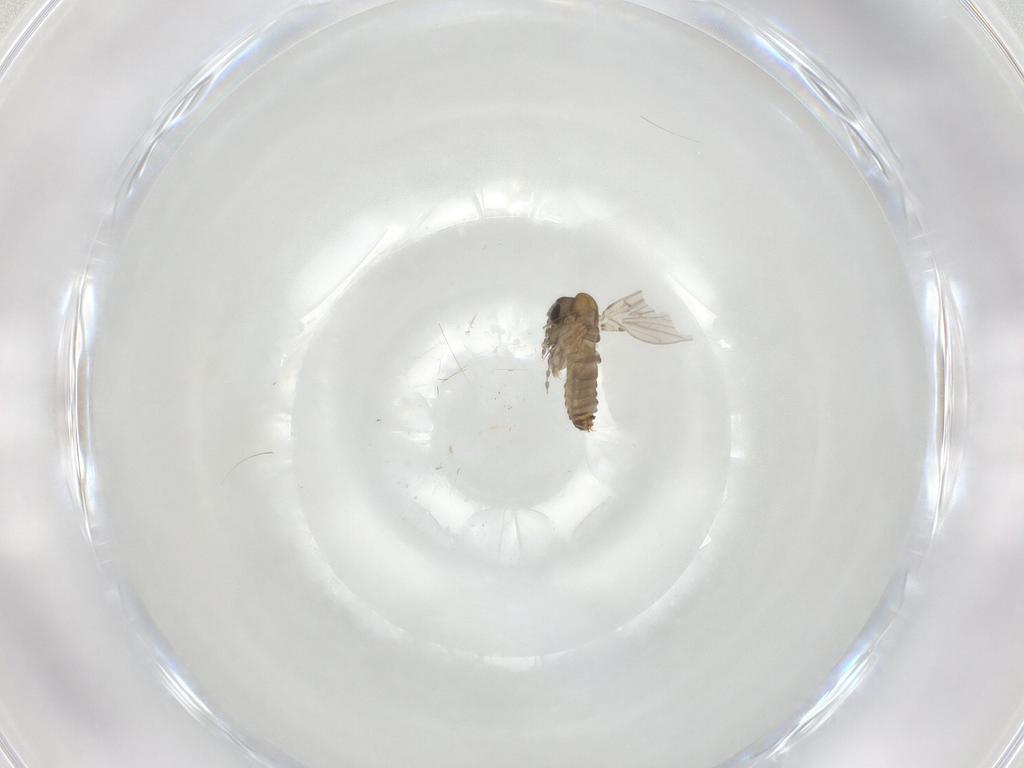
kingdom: Animalia
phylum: Arthropoda
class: Insecta
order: Diptera
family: Psychodidae
